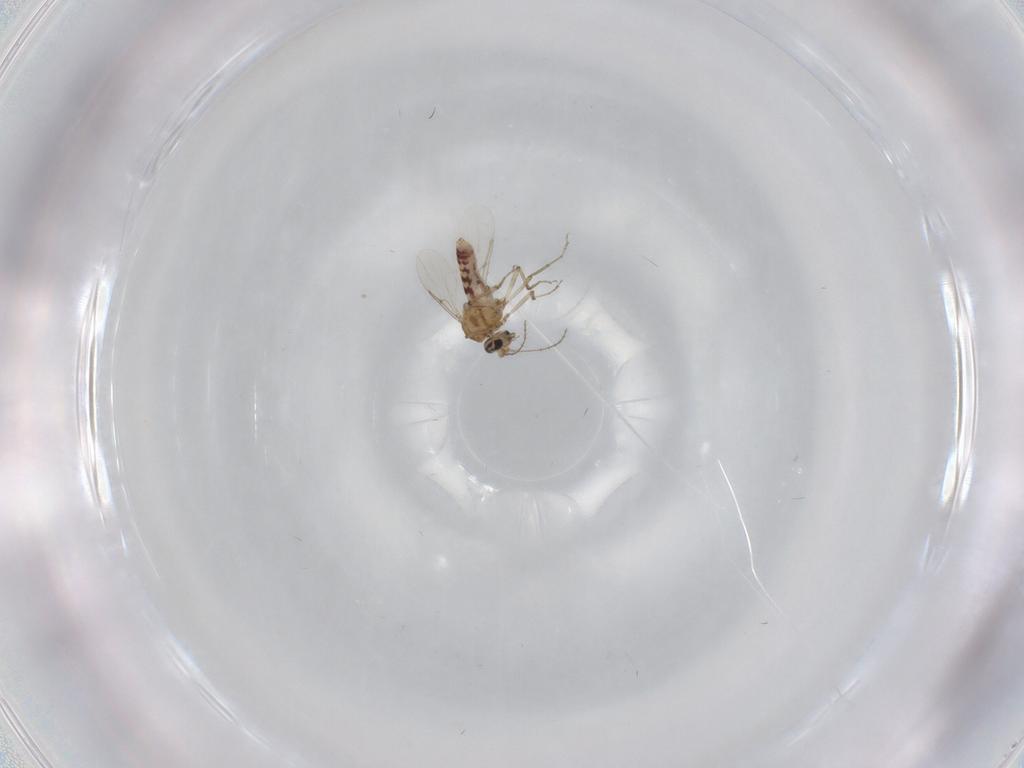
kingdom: Animalia
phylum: Arthropoda
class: Insecta
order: Diptera
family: Ceratopogonidae
